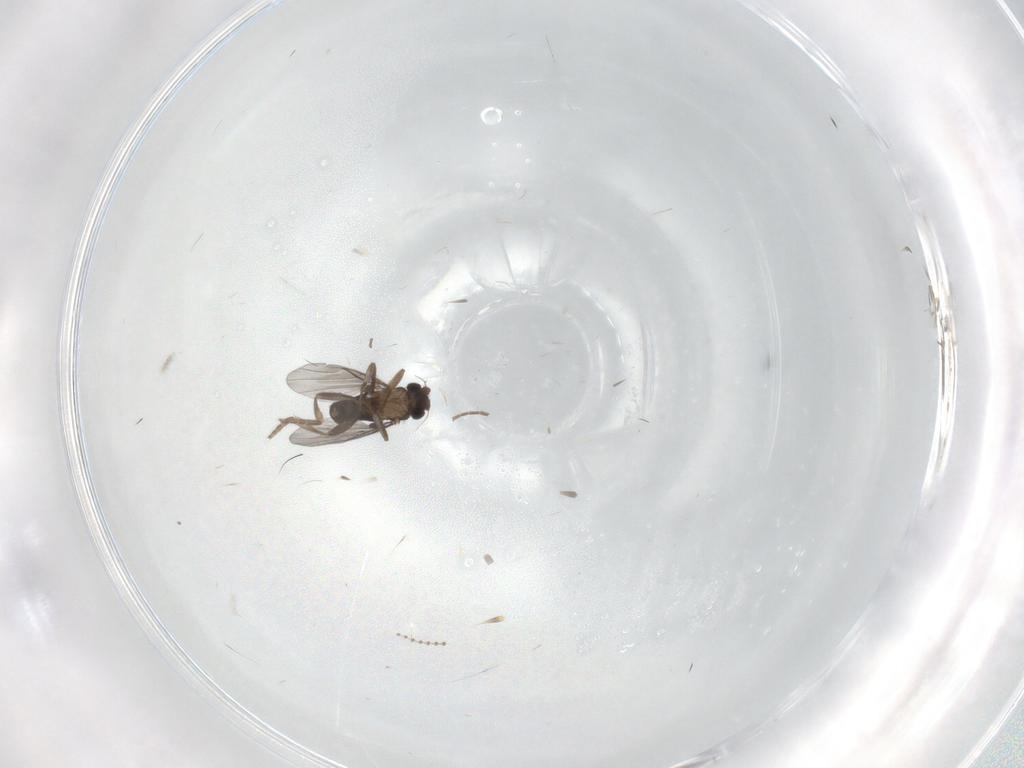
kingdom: Animalia
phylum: Arthropoda
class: Insecta
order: Diptera
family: Cecidomyiidae
